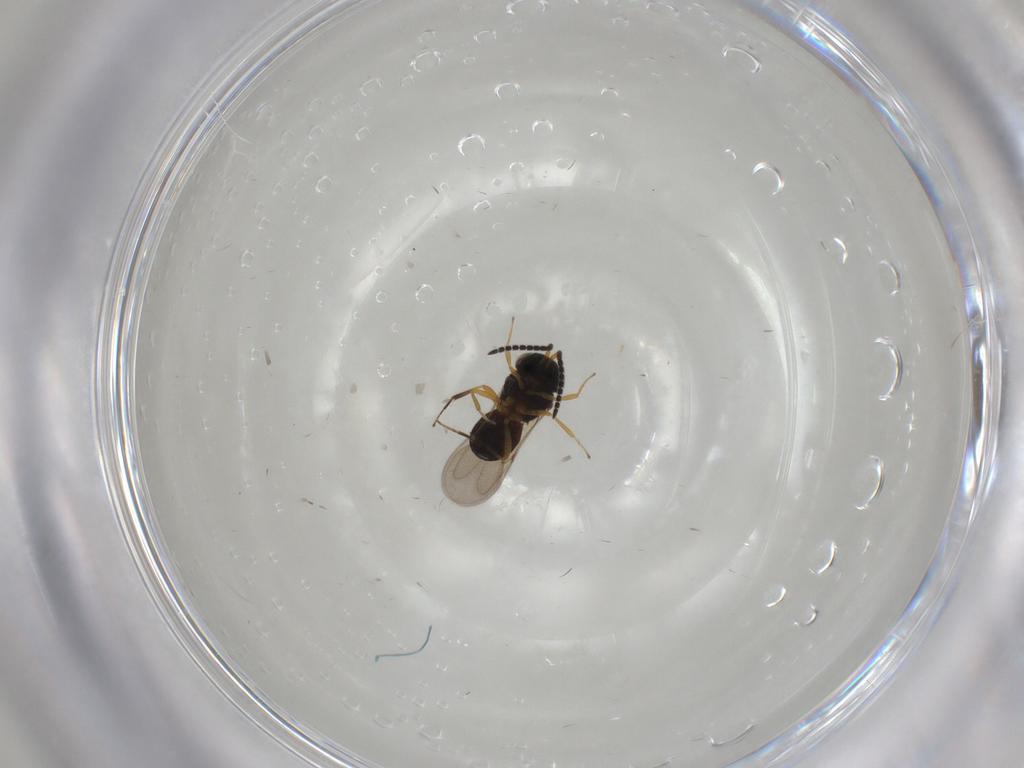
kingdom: Animalia
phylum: Arthropoda
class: Insecta
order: Hymenoptera
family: Scelionidae
